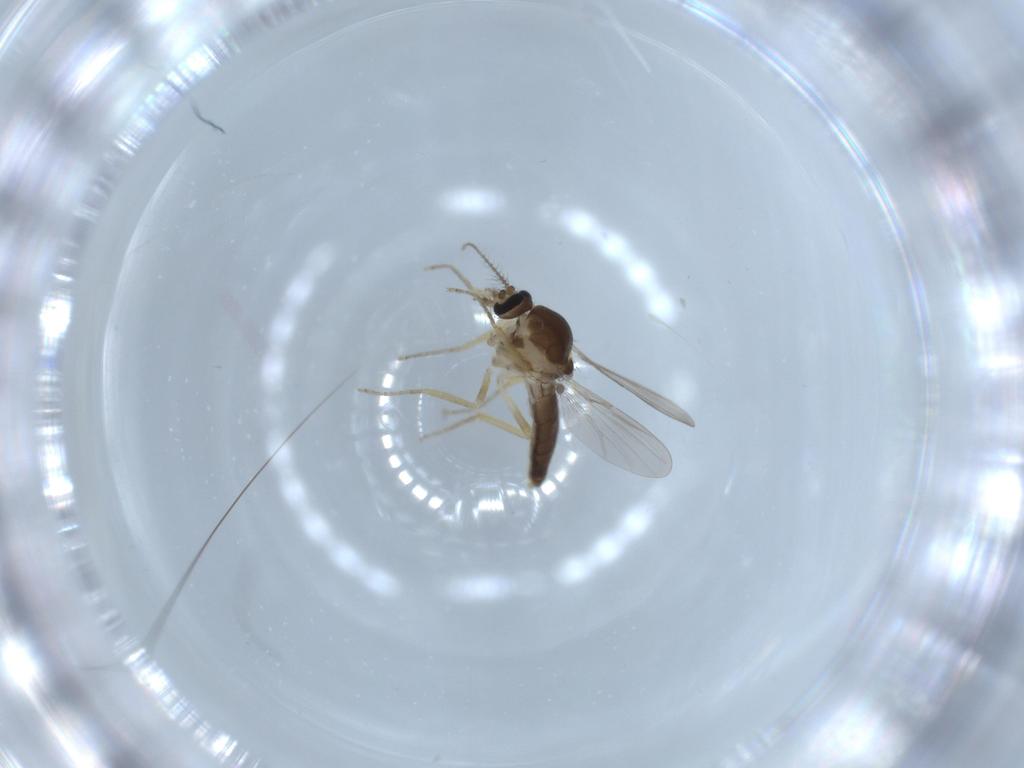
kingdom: Animalia
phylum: Arthropoda
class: Insecta
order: Diptera
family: Ceratopogonidae
